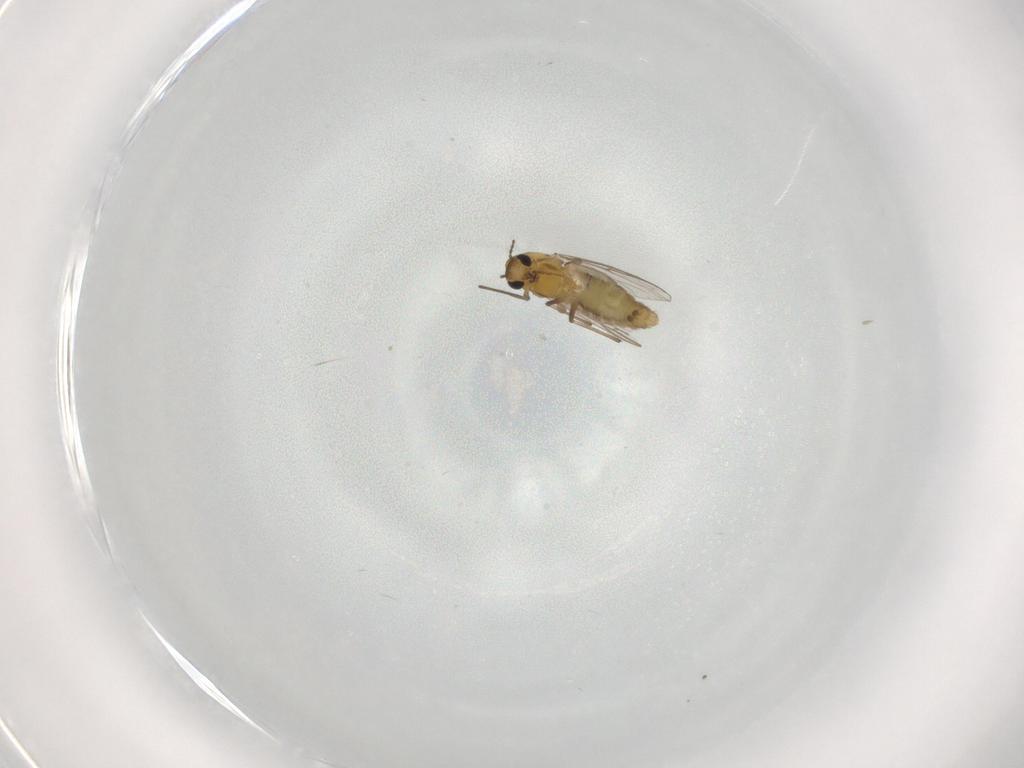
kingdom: Animalia
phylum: Arthropoda
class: Insecta
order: Diptera
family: Chironomidae
